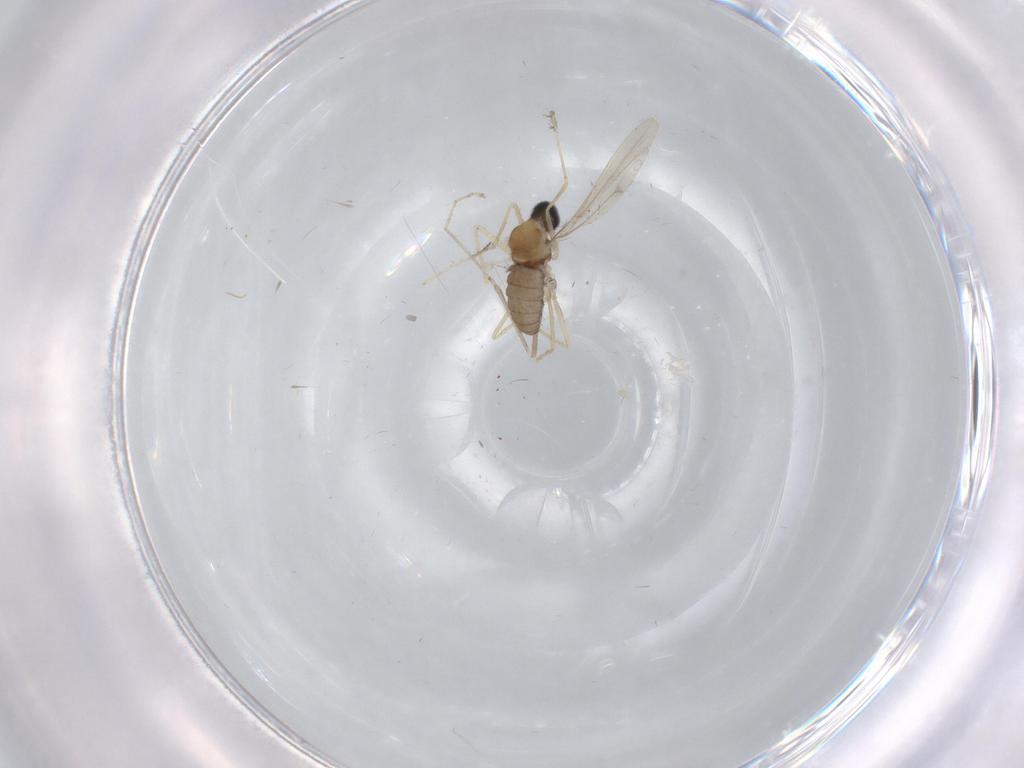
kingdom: Animalia
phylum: Arthropoda
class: Insecta
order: Diptera
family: Cecidomyiidae
